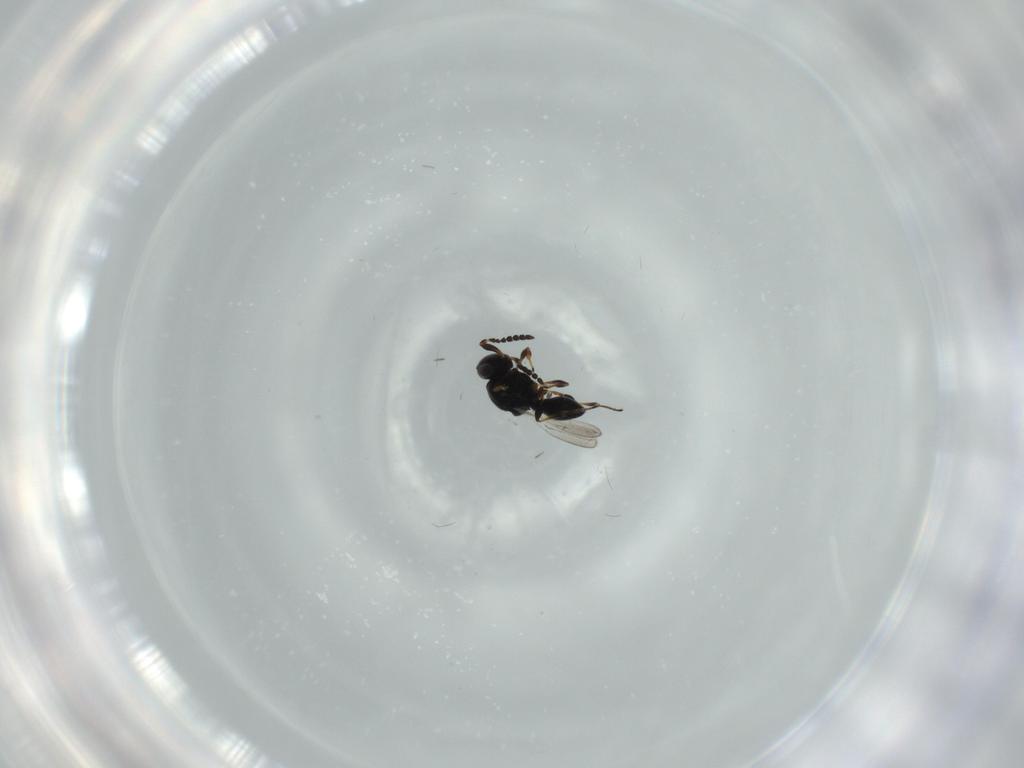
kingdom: Animalia
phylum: Arthropoda
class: Insecta
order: Hymenoptera
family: Platygastridae
